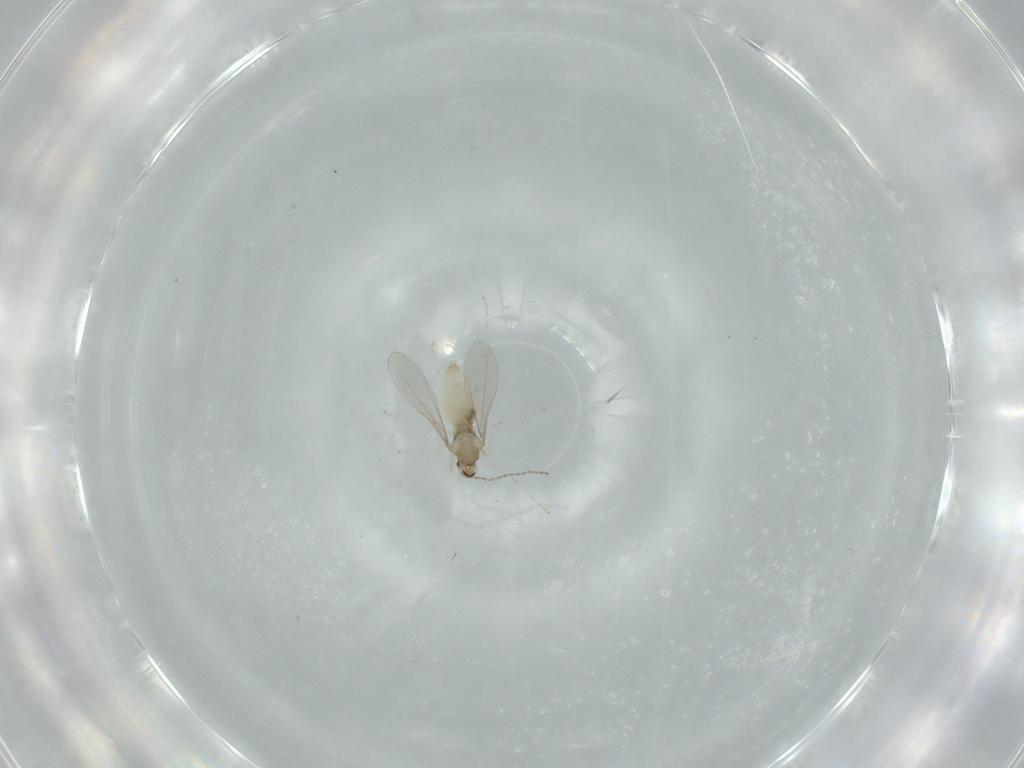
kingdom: Animalia
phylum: Arthropoda
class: Insecta
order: Diptera
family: Cecidomyiidae
